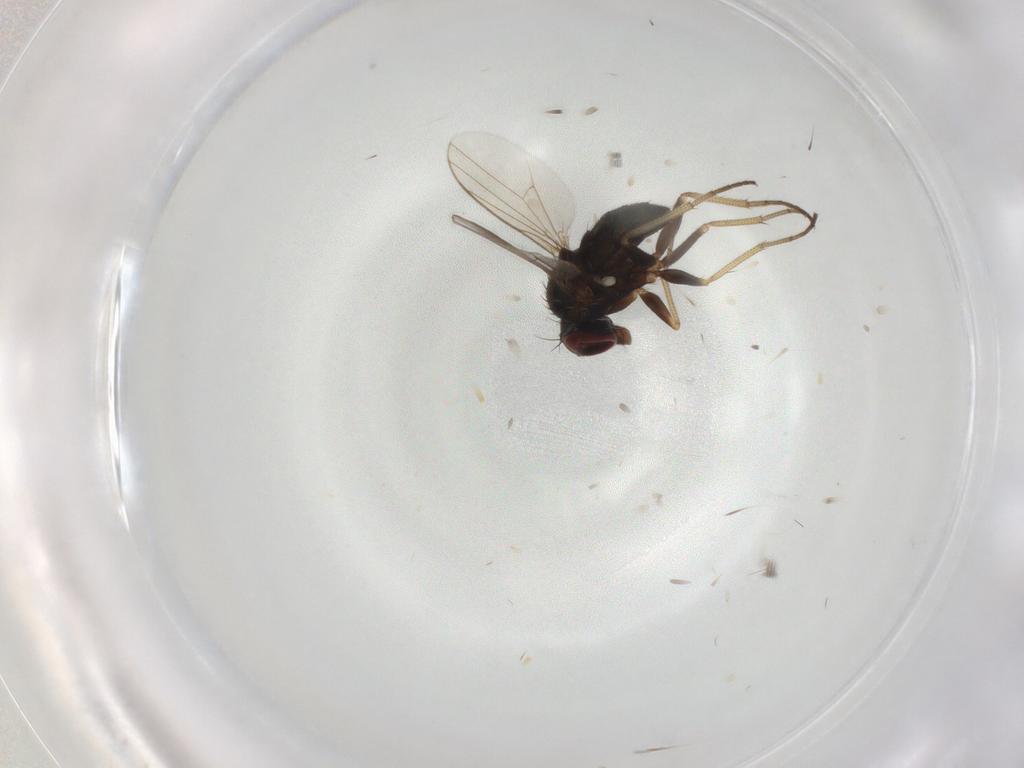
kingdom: Animalia
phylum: Arthropoda
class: Insecta
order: Diptera
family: Dolichopodidae
